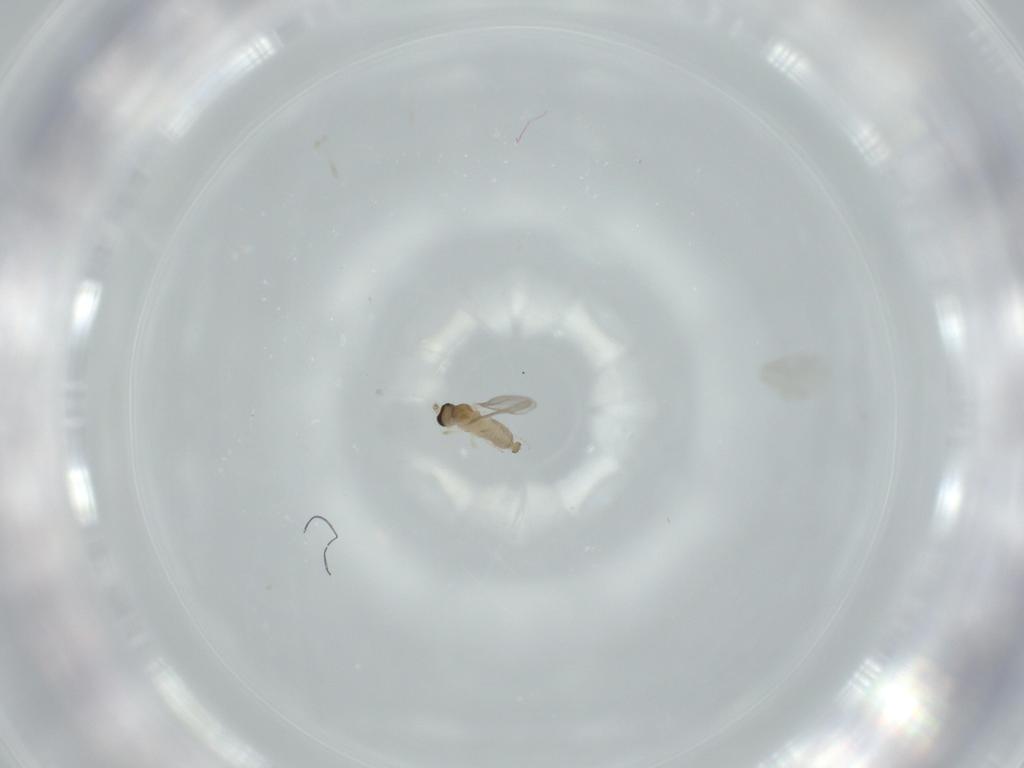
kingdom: Animalia
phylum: Arthropoda
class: Insecta
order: Diptera
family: Cecidomyiidae
